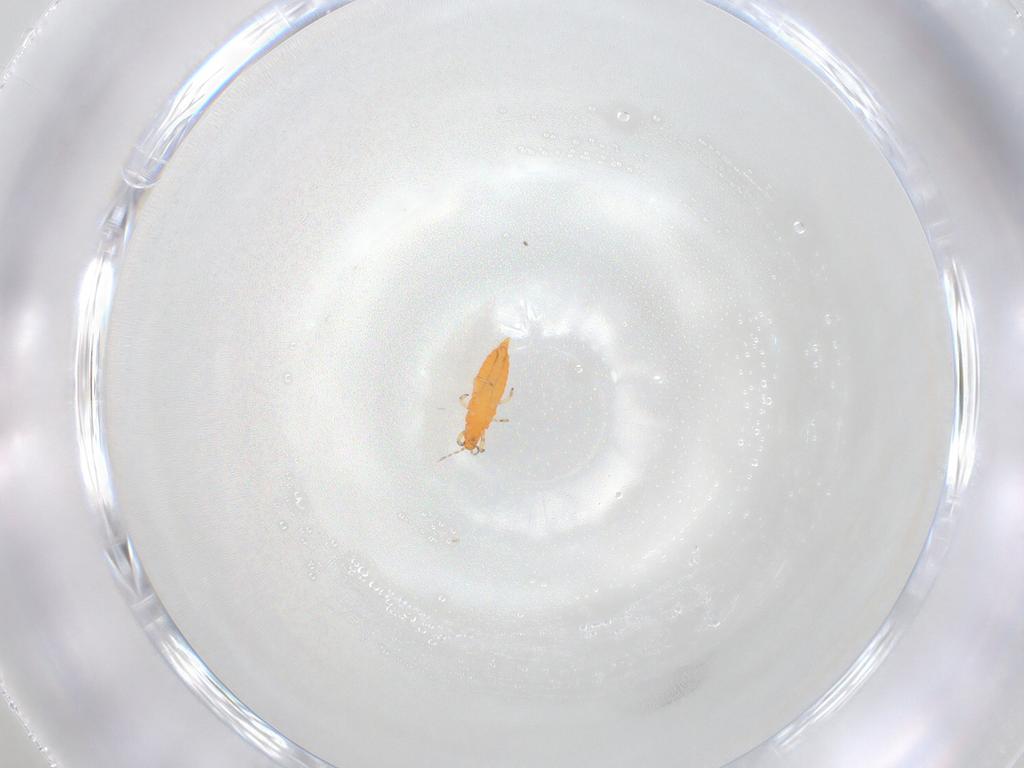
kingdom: Animalia
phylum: Arthropoda
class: Insecta
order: Thysanoptera
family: Aeolothripidae
